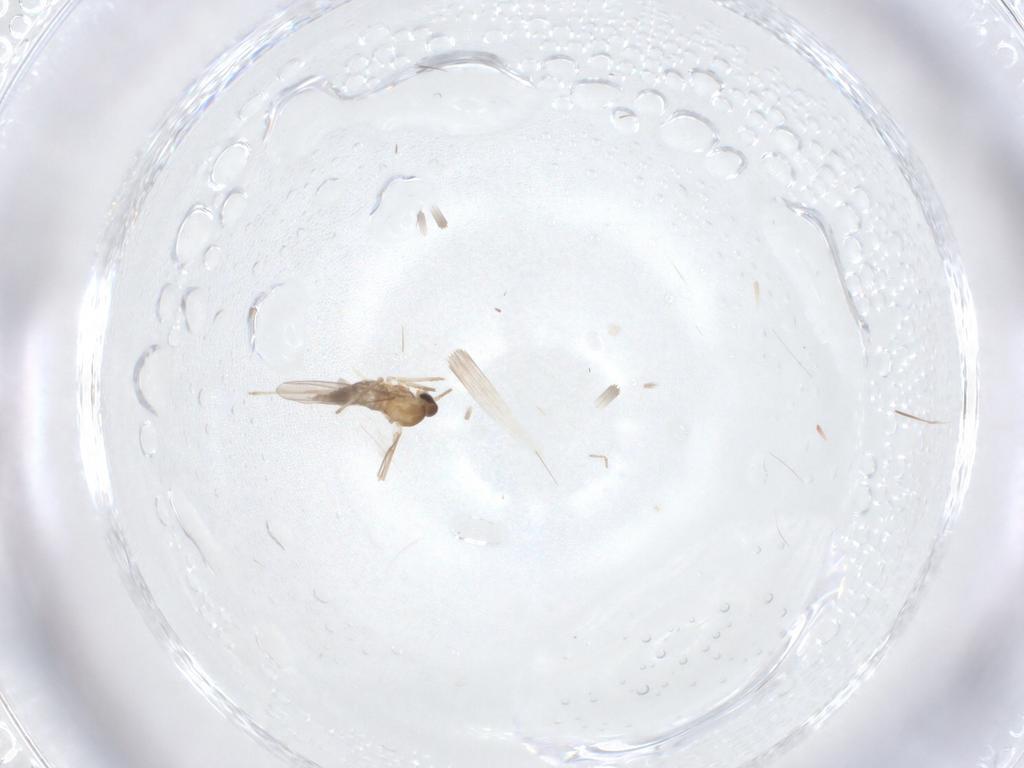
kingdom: Animalia
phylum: Arthropoda
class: Insecta
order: Diptera
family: Cecidomyiidae
